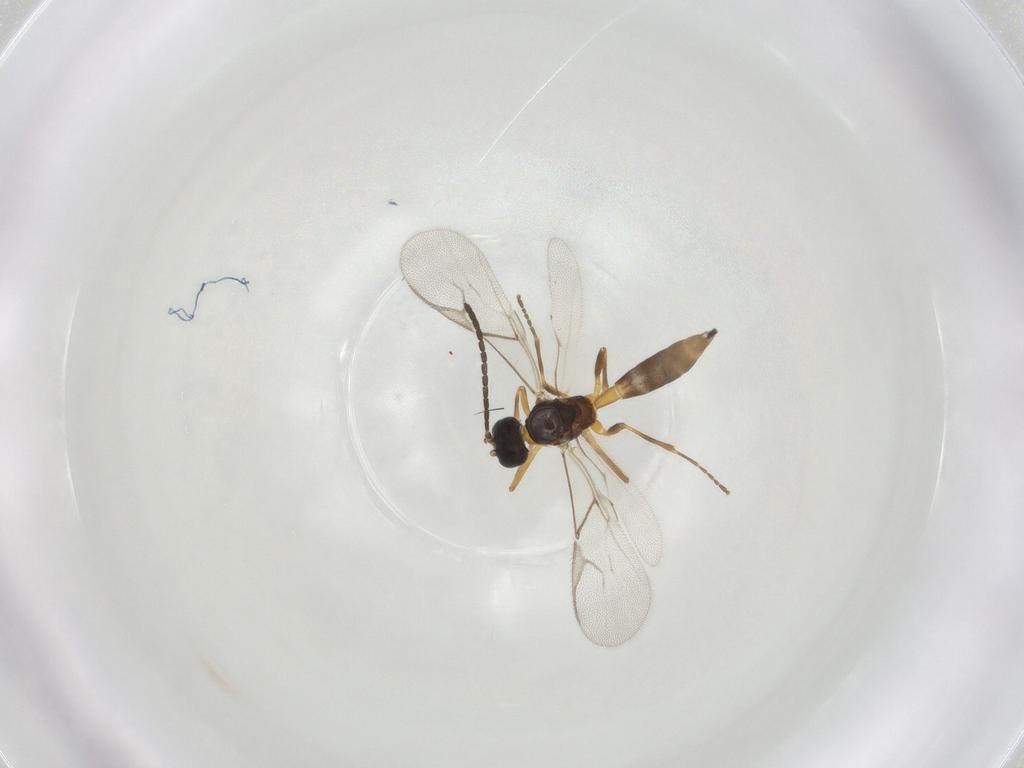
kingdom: Animalia
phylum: Arthropoda
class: Insecta
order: Hymenoptera
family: Braconidae
